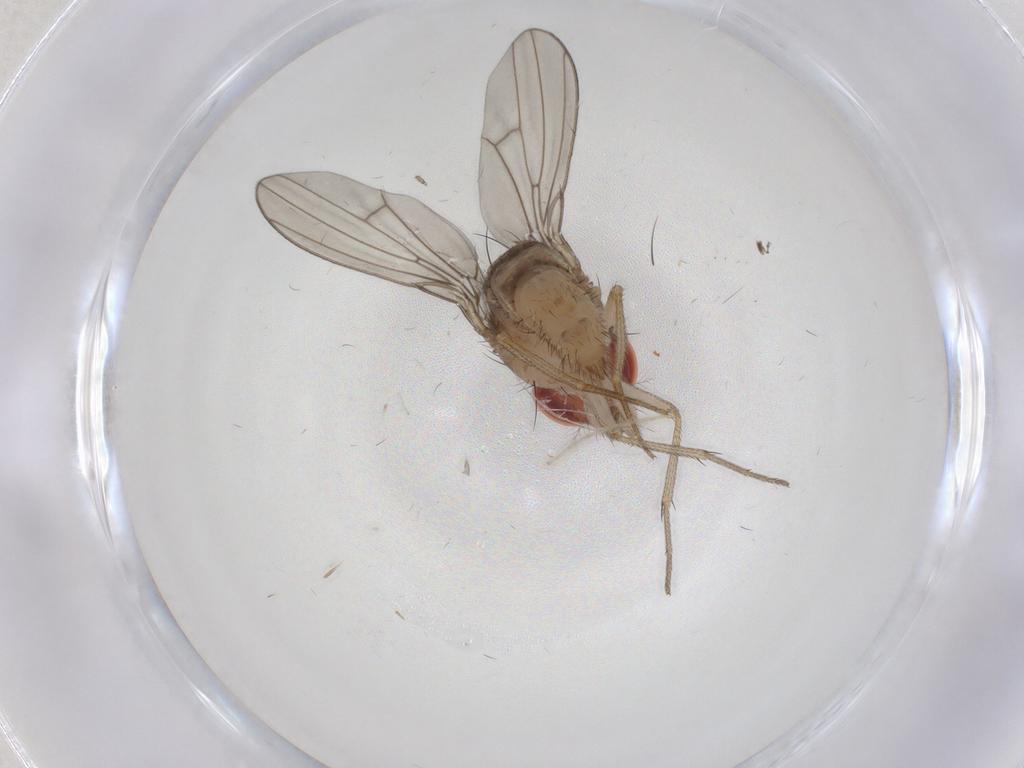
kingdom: Animalia
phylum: Arthropoda
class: Insecta
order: Diptera
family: Drosophilidae
